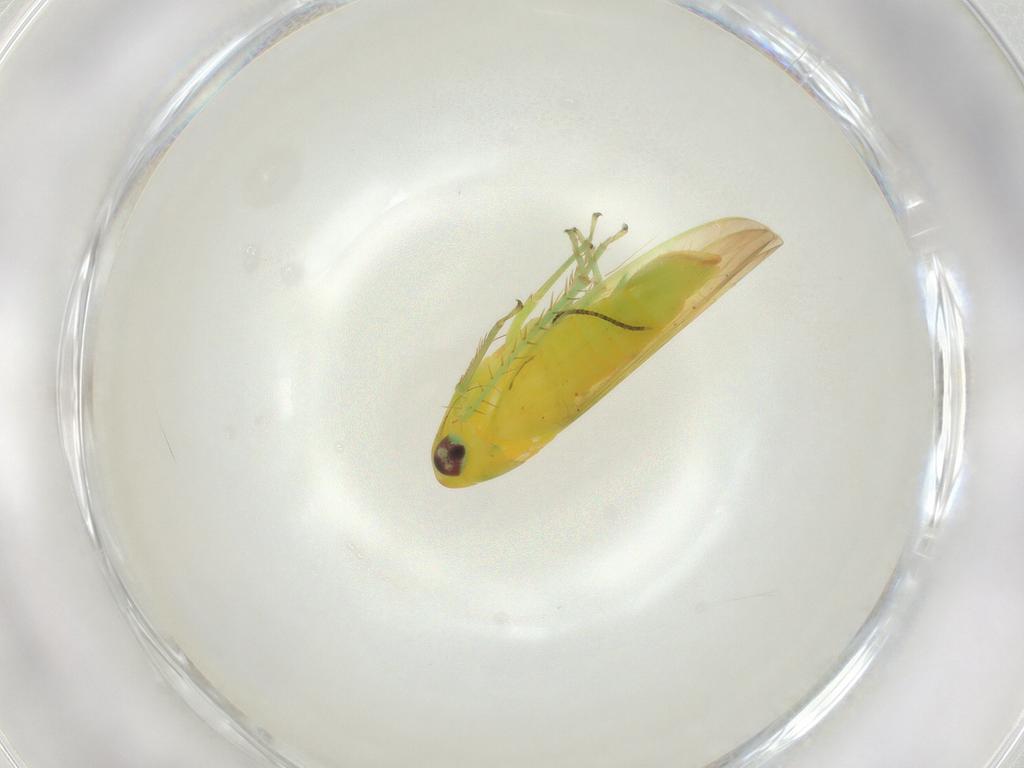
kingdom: Animalia
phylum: Arthropoda
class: Insecta
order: Hemiptera
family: Cicadellidae
